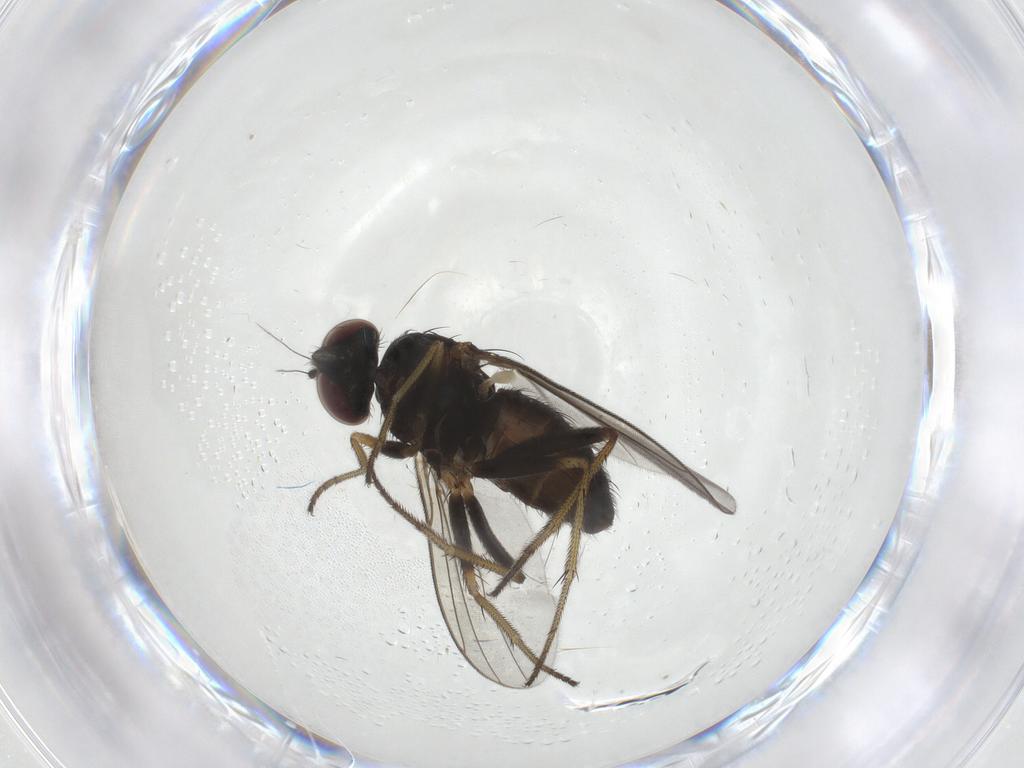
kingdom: Animalia
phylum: Arthropoda
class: Insecta
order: Diptera
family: Chironomidae
